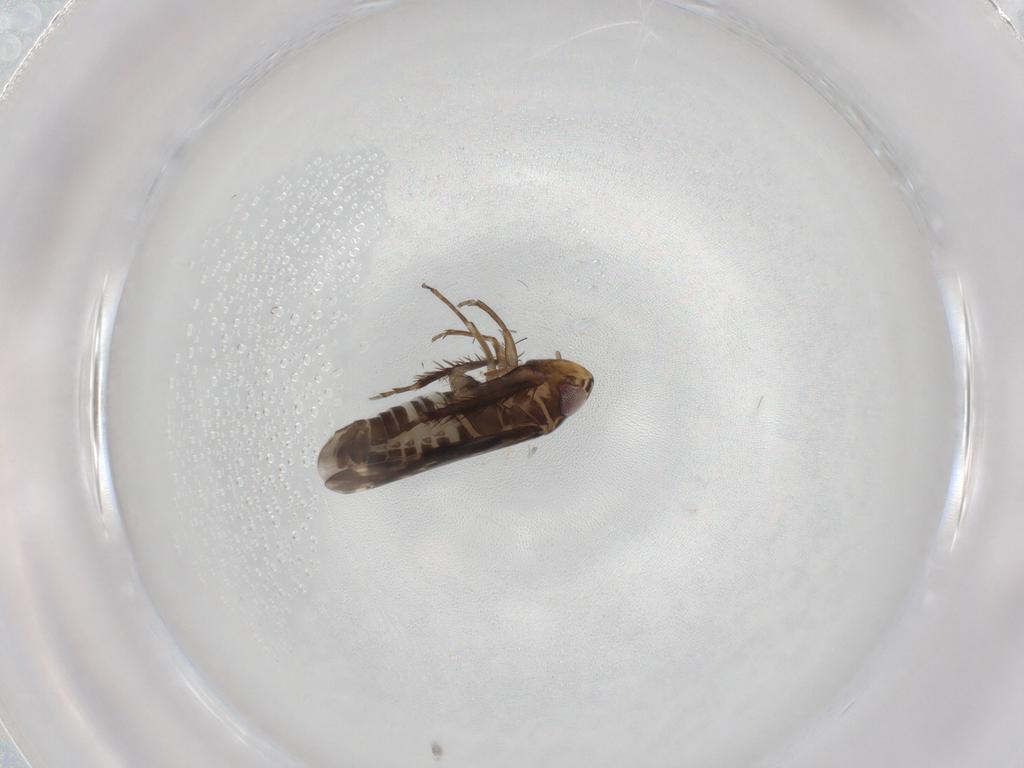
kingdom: Animalia
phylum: Arthropoda
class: Insecta
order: Hemiptera
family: Cicadellidae
